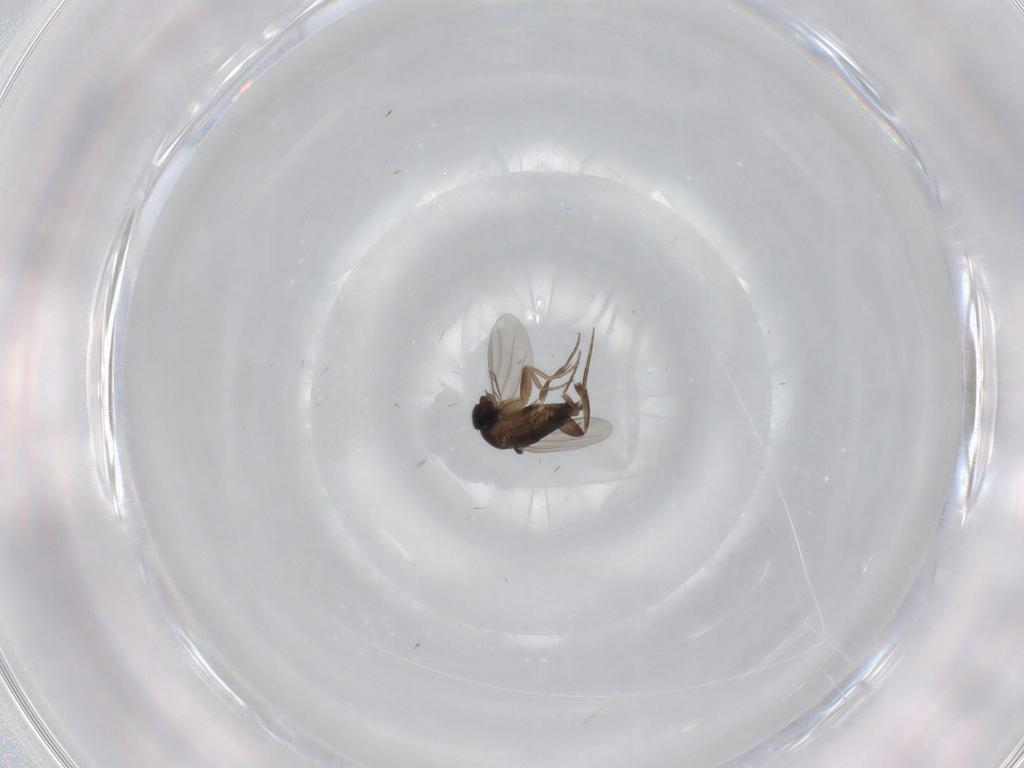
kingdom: Animalia
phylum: Arthropoda
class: Insecta
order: Diptera
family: Phoridae
